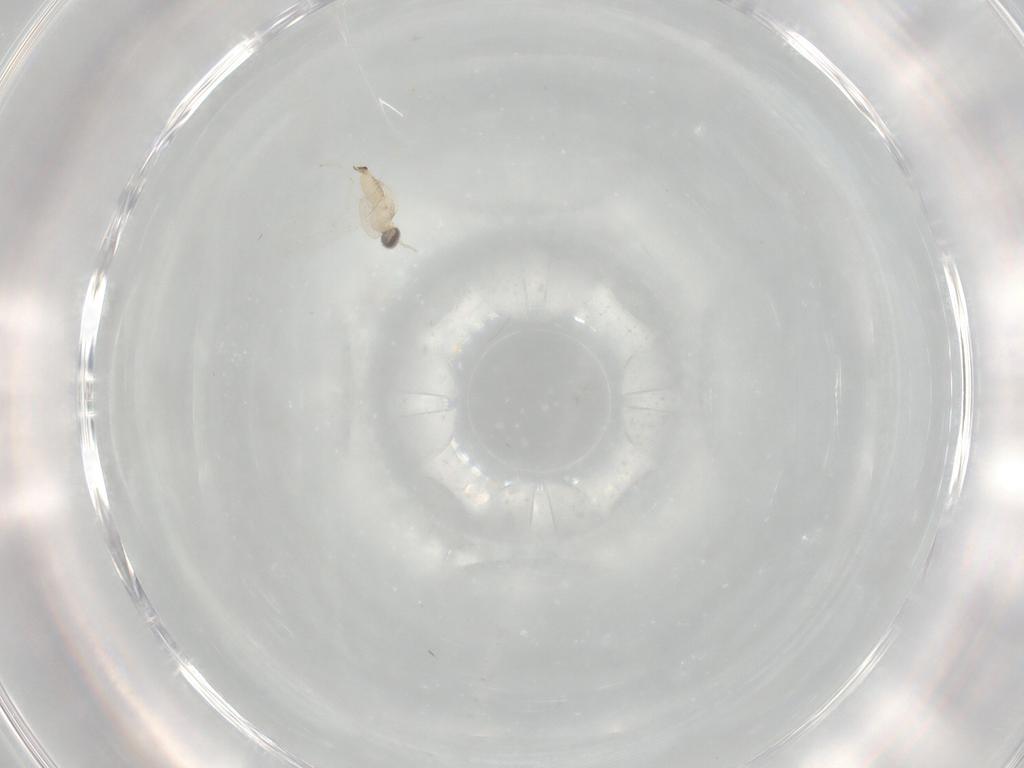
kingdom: Animalia
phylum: Arthropoda
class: Insecta
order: Diptera
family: Cecidomyiidae
